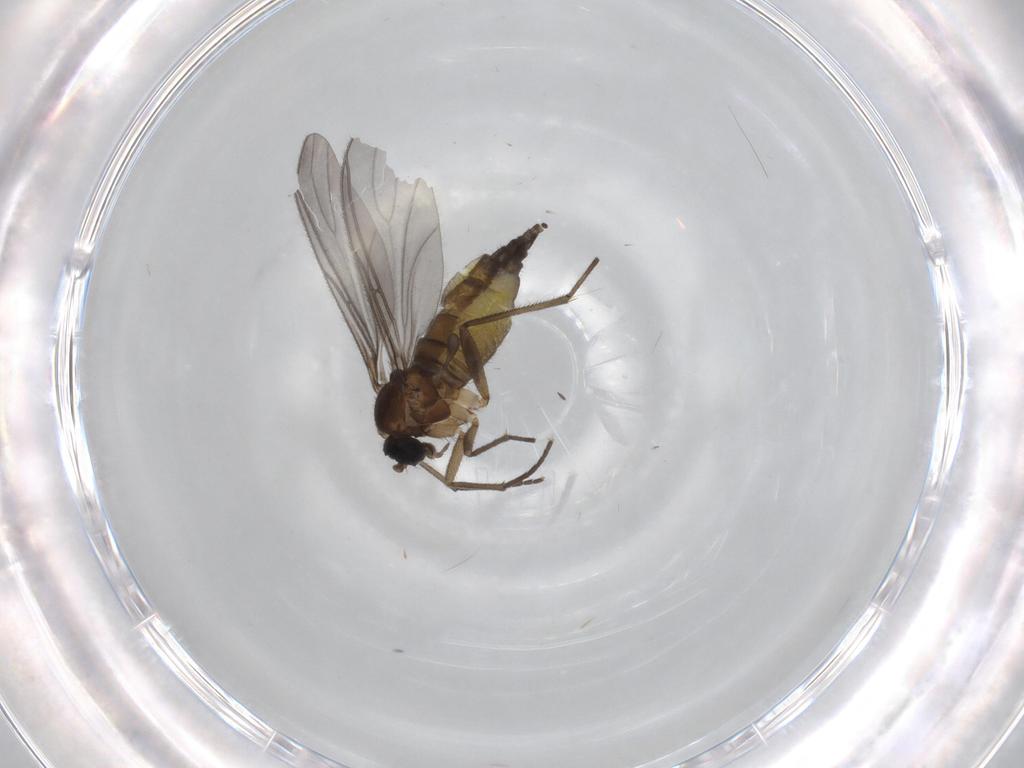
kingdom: Animalia
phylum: Arthropoda
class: Insecta
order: Diptera
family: Sciaridae
